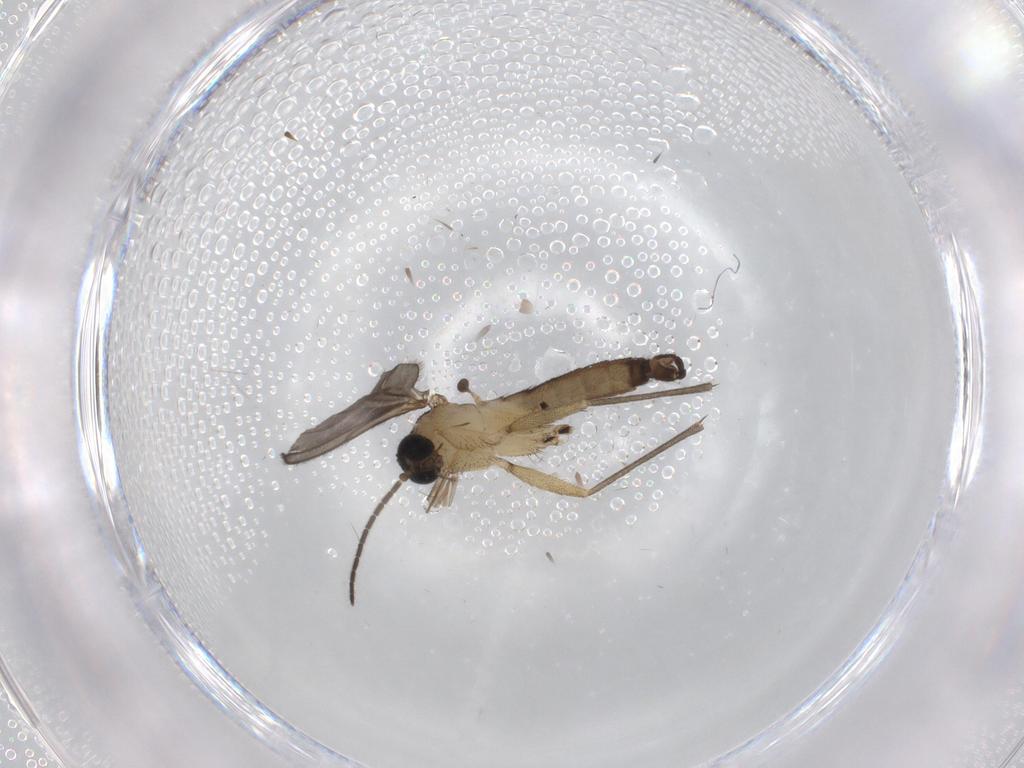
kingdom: Animalia
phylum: Arthropoda
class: Insecta
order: Diptera
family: Sciaridae
